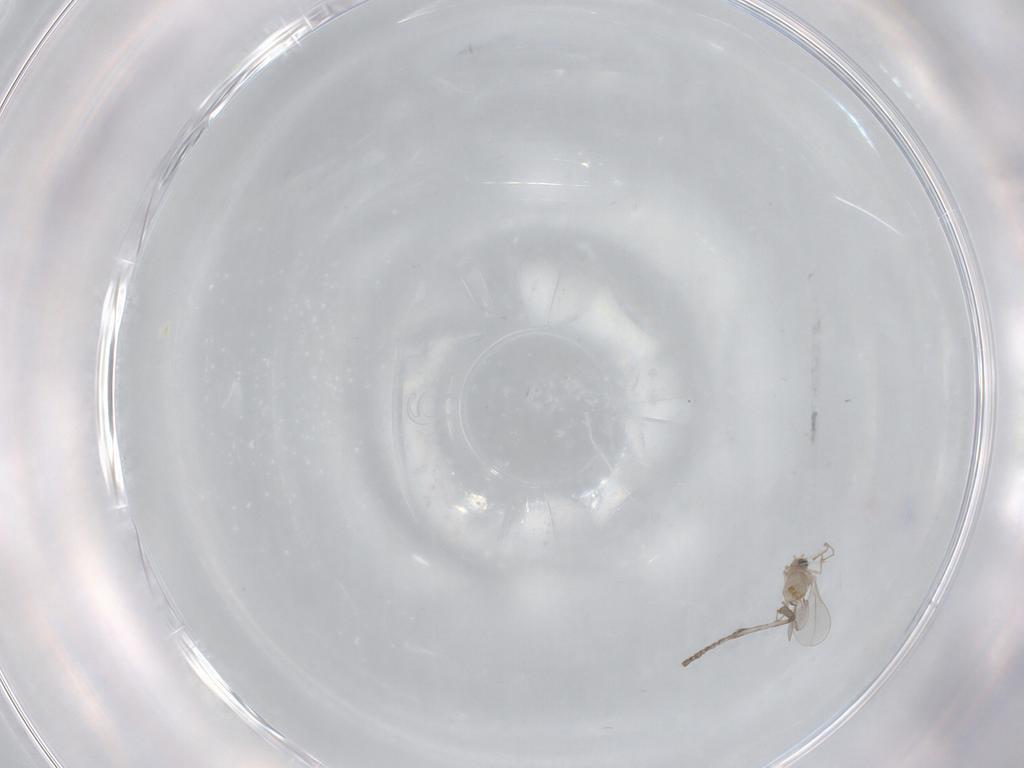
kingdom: Animalia
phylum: Arthropoda
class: Insecta
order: Diptera
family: Psychodidae
